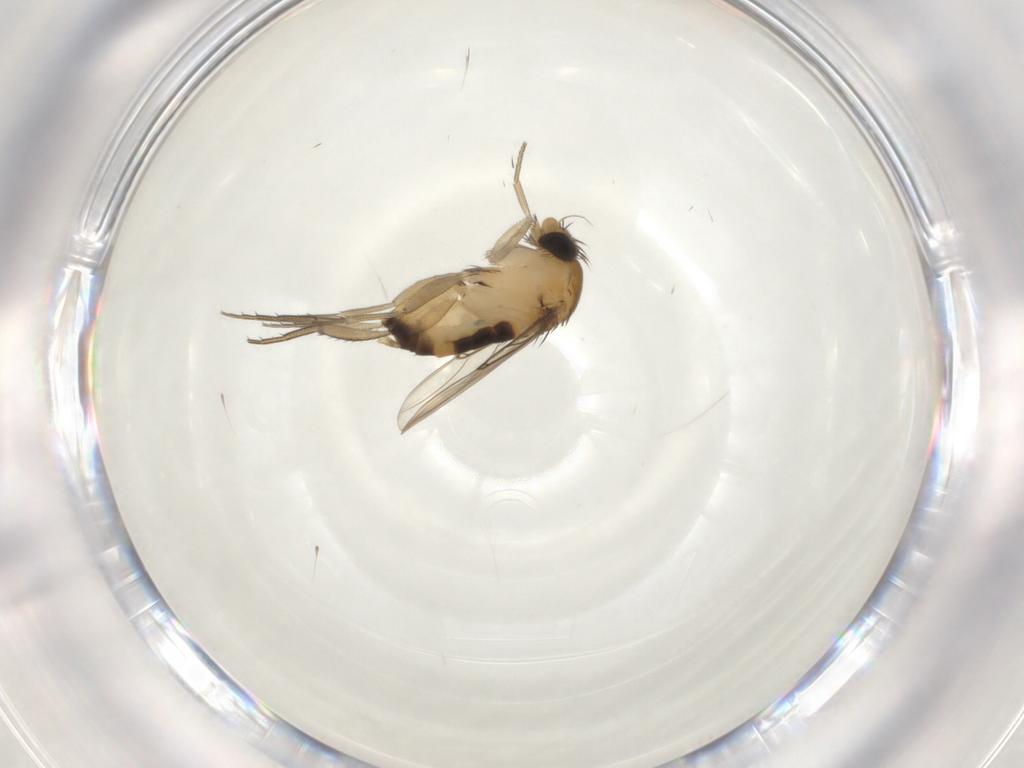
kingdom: Animalia
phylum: Arthropoda
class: Insecta
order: Diptera
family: Phoridae
